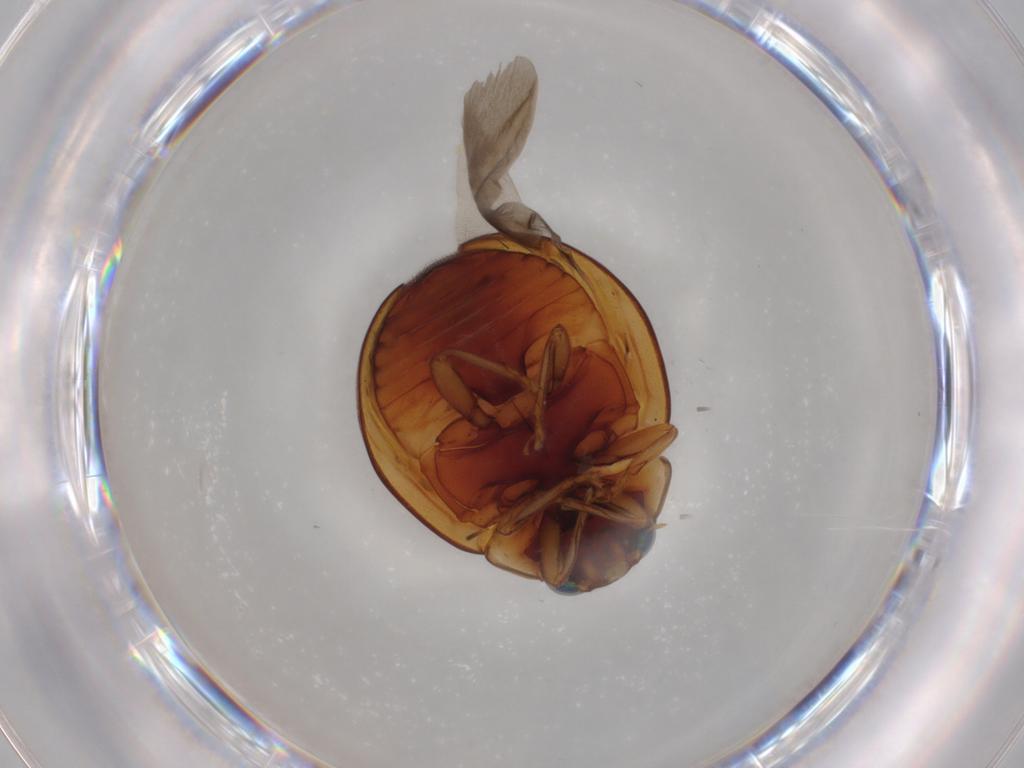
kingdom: Animalia
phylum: Arthropoda
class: Insecta
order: Coleoptera
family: Coccinellidae
